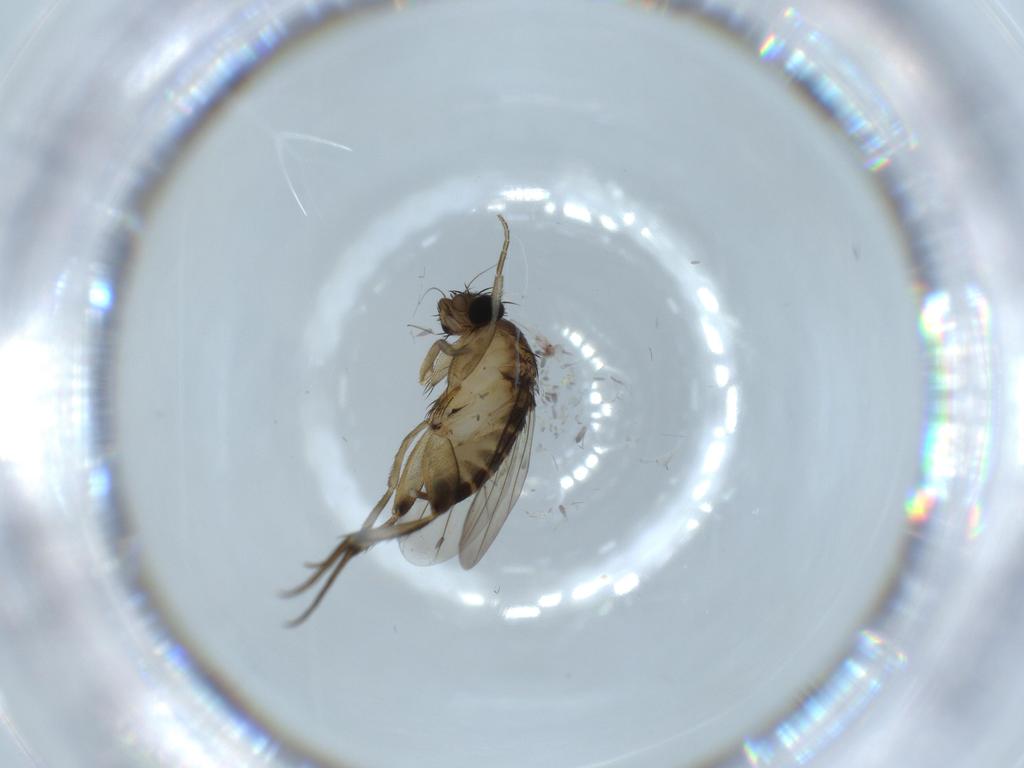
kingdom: Animalia
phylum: Arthropoda
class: Insecta
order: Diptera
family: Phoridae
